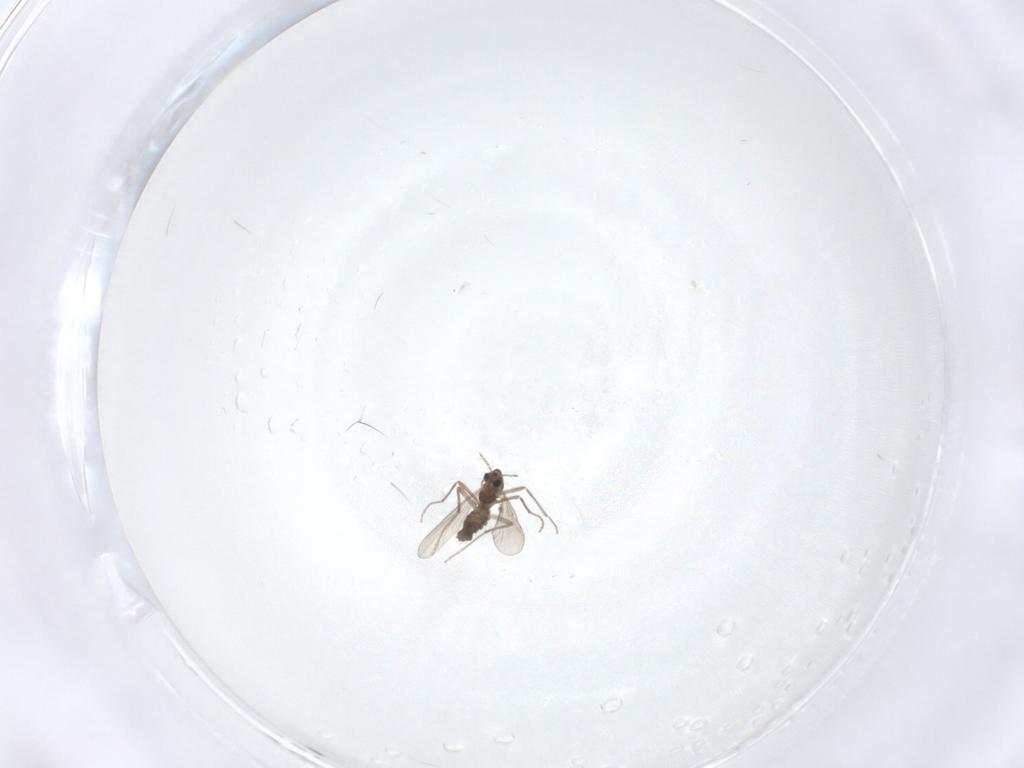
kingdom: Animalia
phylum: Arthropoda
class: Insecta
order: Diptera
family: Chironomidae
